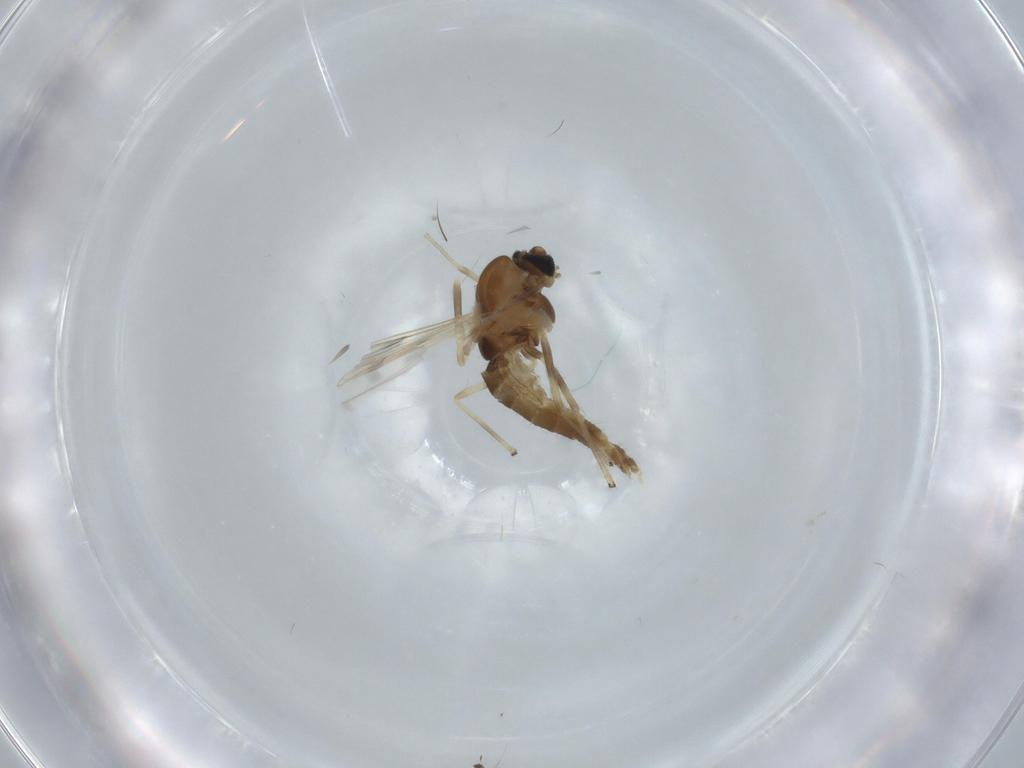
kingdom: Animalia
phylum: Arthropoda
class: Insecta
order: Diptera
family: Chironomidae
